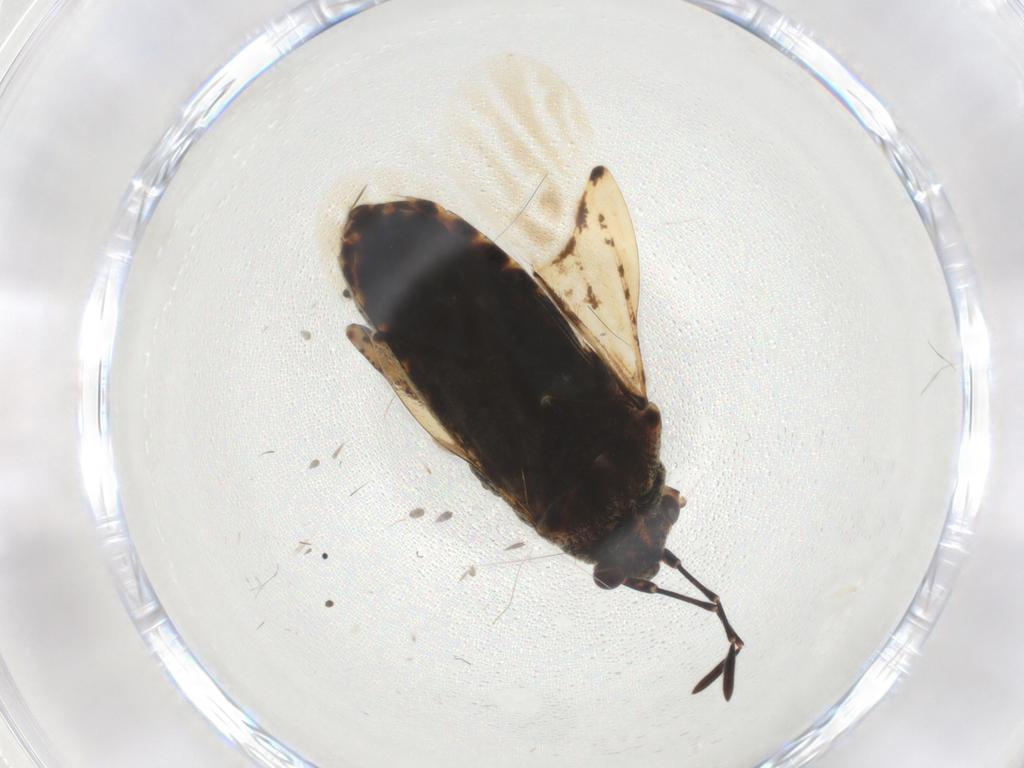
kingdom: Animalia
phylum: Arthropoda
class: Insecta
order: Hemiptera
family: Lygaeidae
